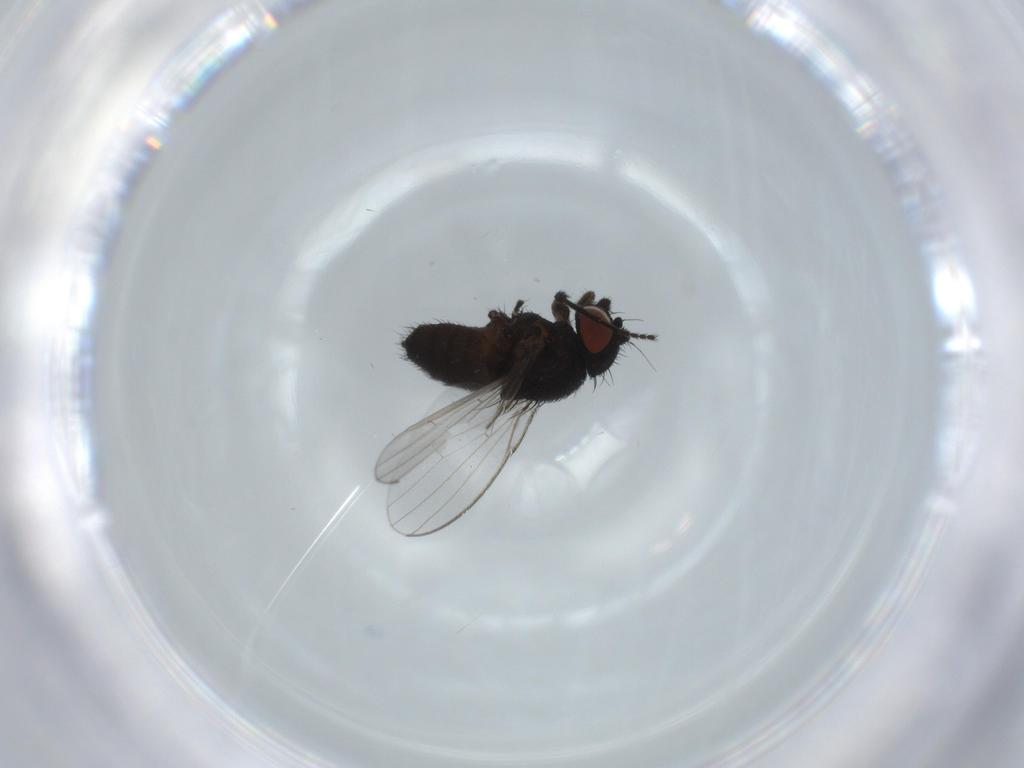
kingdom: Animalia
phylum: Arthropoda
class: Insecta
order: Diptera
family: Milichiidae
